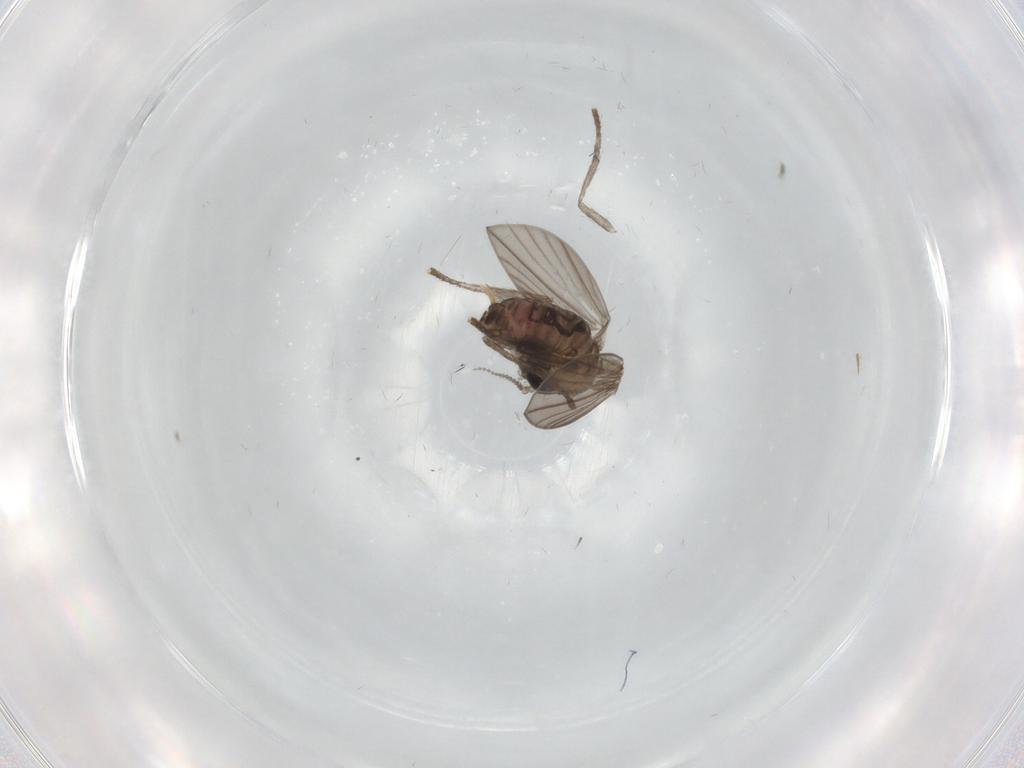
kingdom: Animalia
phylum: Arthropoda
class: Insecta
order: Diptera
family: Psychodidae
